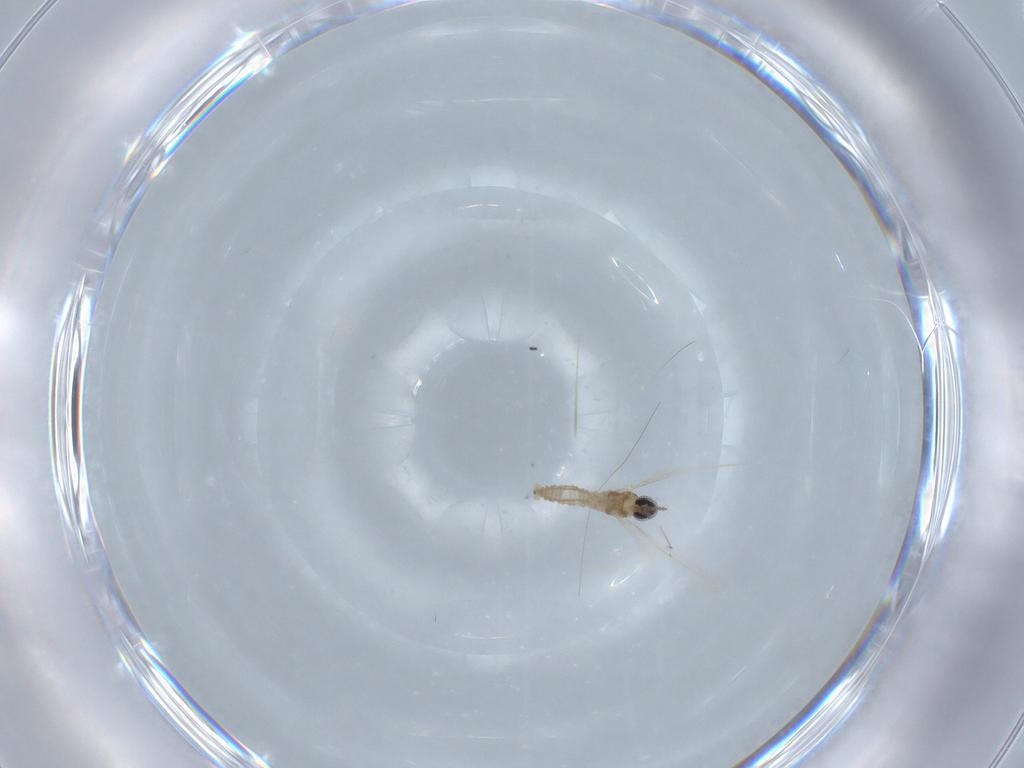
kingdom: Animalia
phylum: Arthropoda
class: Insecta
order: Diptera
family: Cecidomyiidae
